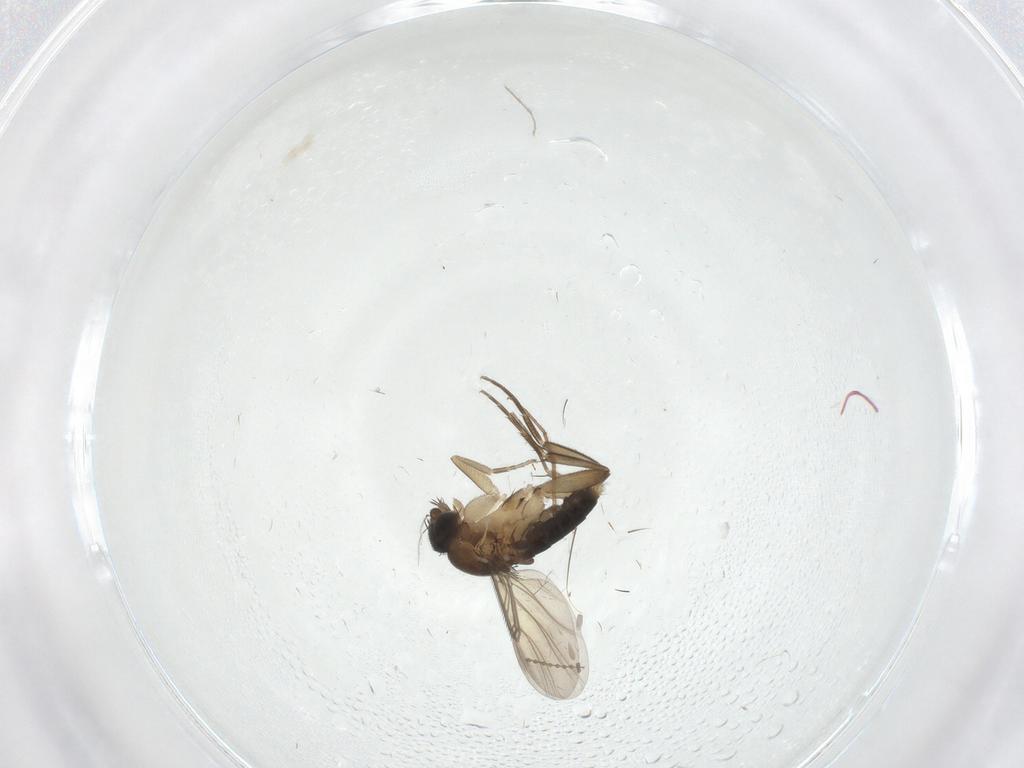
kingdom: Animalia
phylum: Arthropoda
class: Insecta
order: Diptera
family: Phoridae
